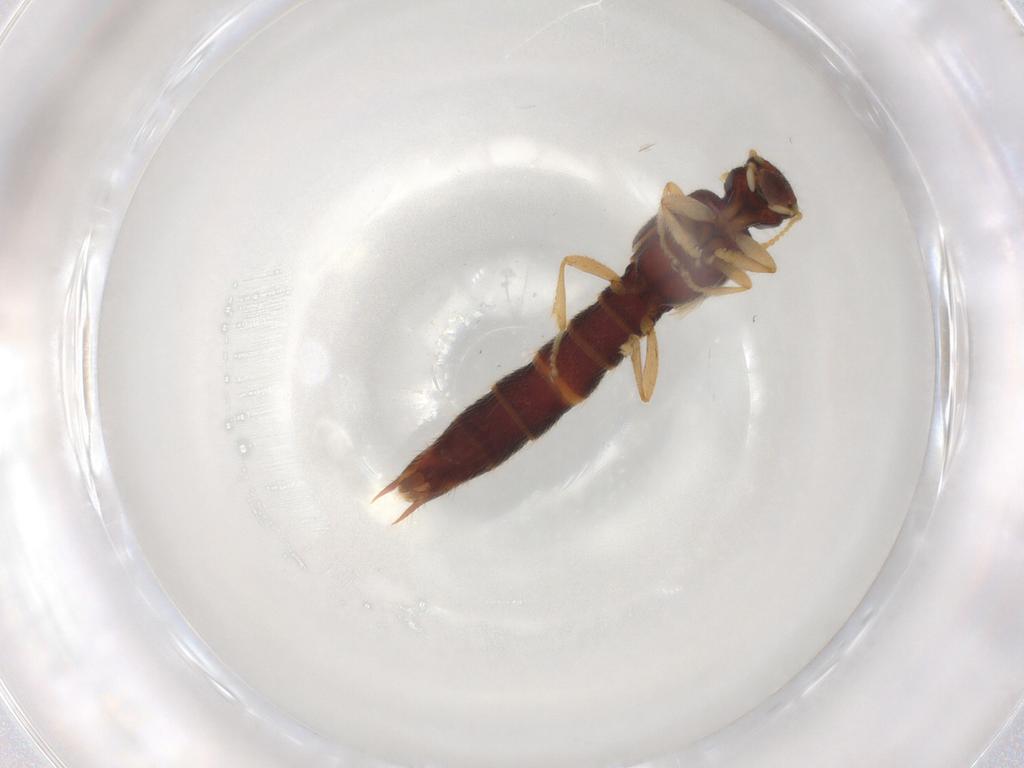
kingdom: Animalia
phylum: Arthropoda
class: Insecta
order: Coleoptera
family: Staphylinidae
